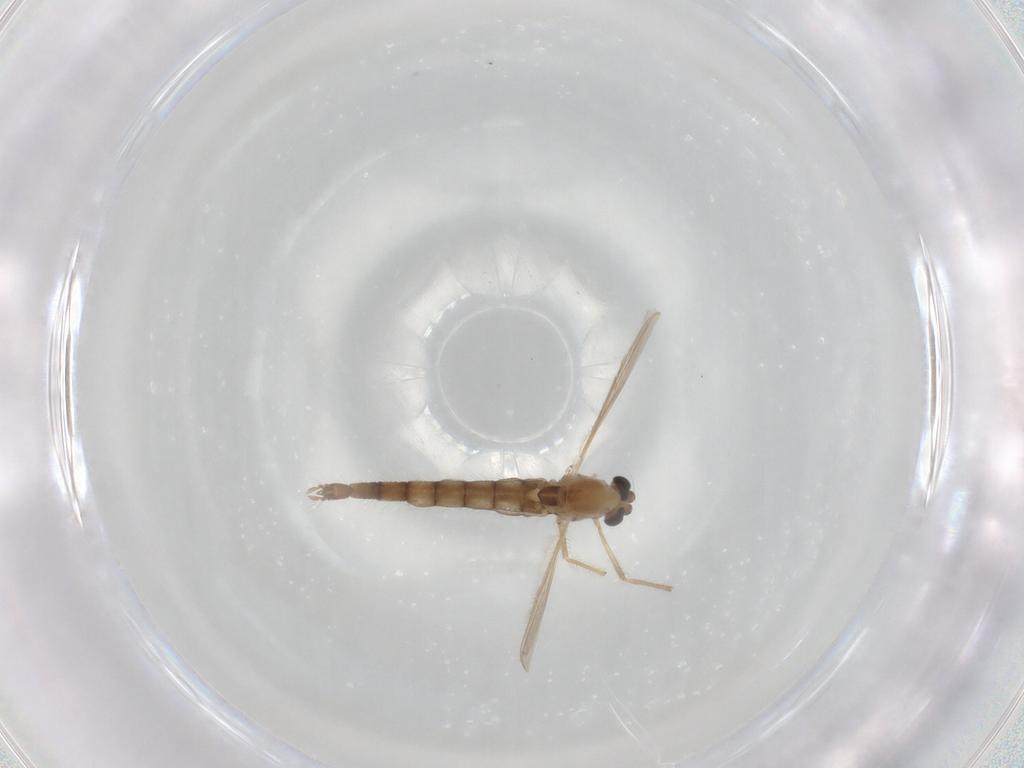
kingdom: Animalia
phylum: Arthropoda
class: Insecta
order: Diptera
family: Chironomidae
